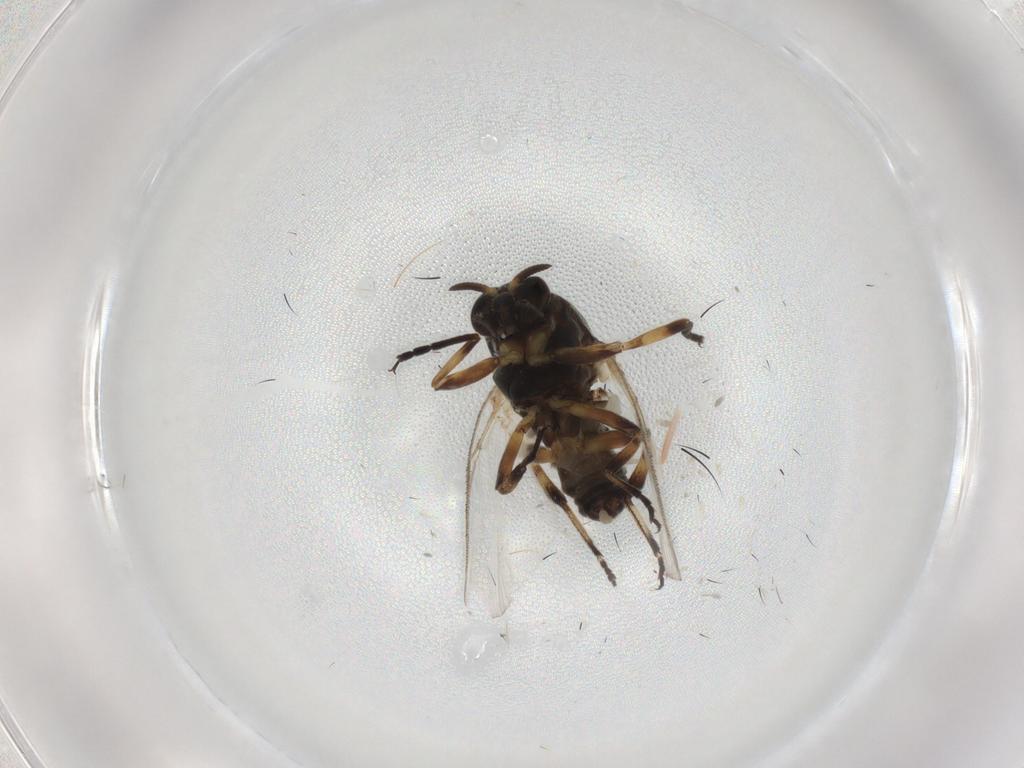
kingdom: Animalia
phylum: Arthropoda
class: Insecta
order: Diptera
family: Simuliidae
